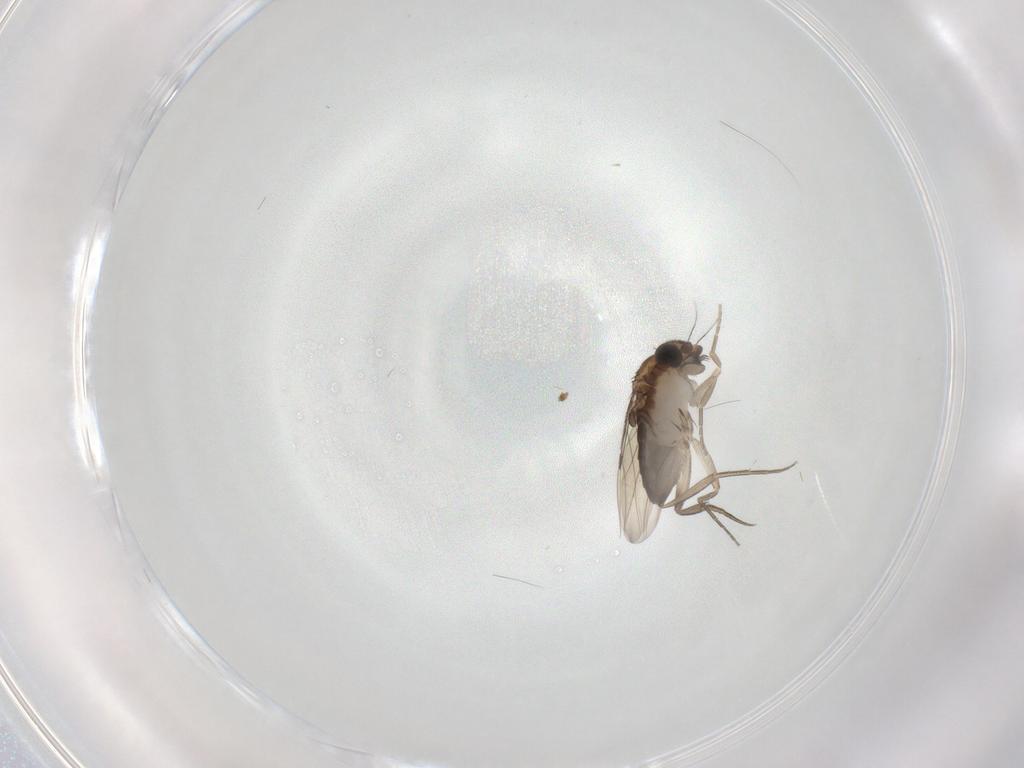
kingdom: Animalia
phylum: Arthropoda
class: Insecta
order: Diptera
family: Phoridae
